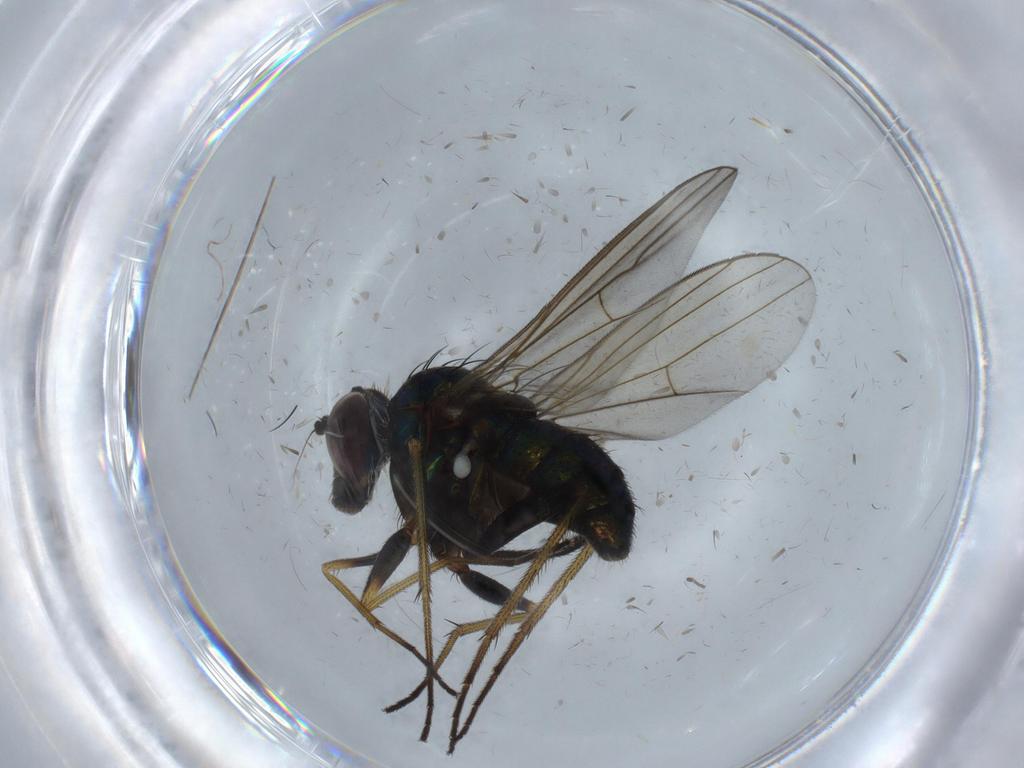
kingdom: Animalia
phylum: Arthropoda
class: Insecta
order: Diptera
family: Dolichopodidae
